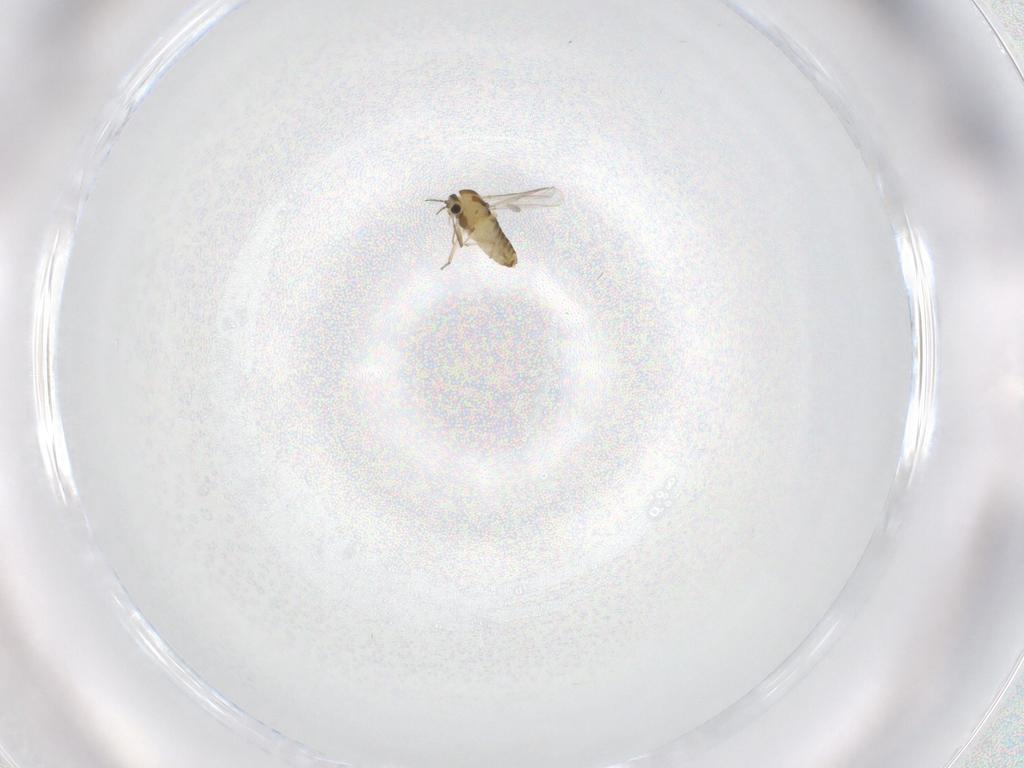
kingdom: Animalia
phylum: Arthropoda
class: Insecta
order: Diptera
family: Chironomidae
